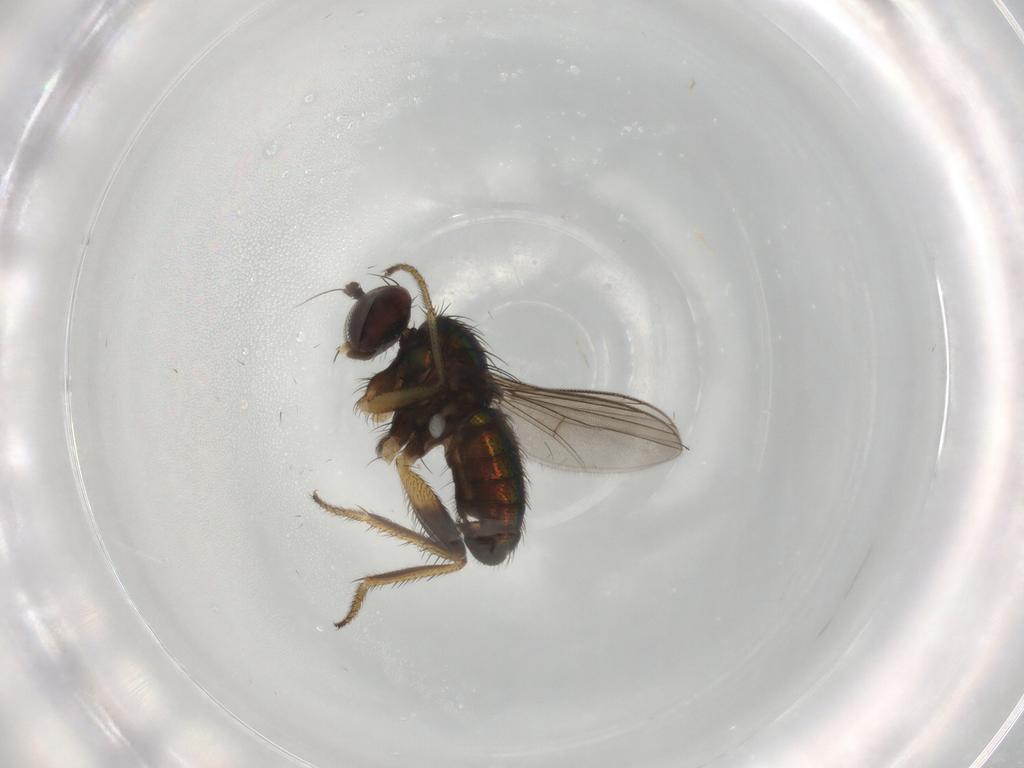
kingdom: Animalia
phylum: Arthropoda
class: Insecta
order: Diptera
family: Dolichopodidae
